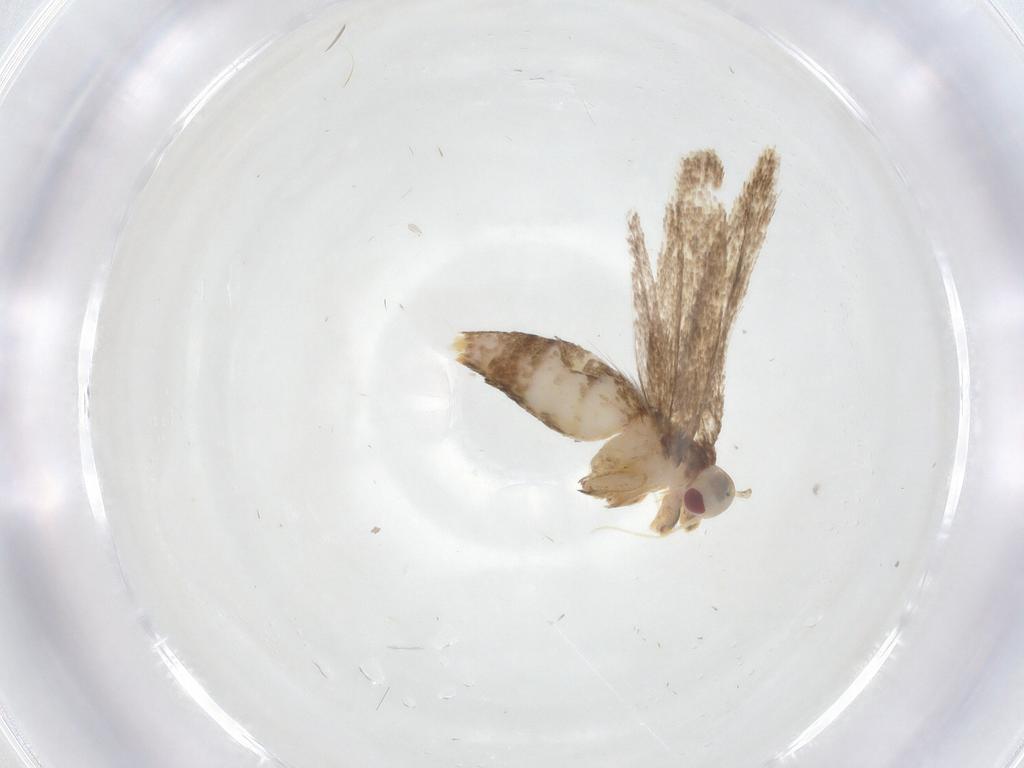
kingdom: Animalia
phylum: Arthropoda
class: Insecta
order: Lepidoptera
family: Cosmopterigidae
